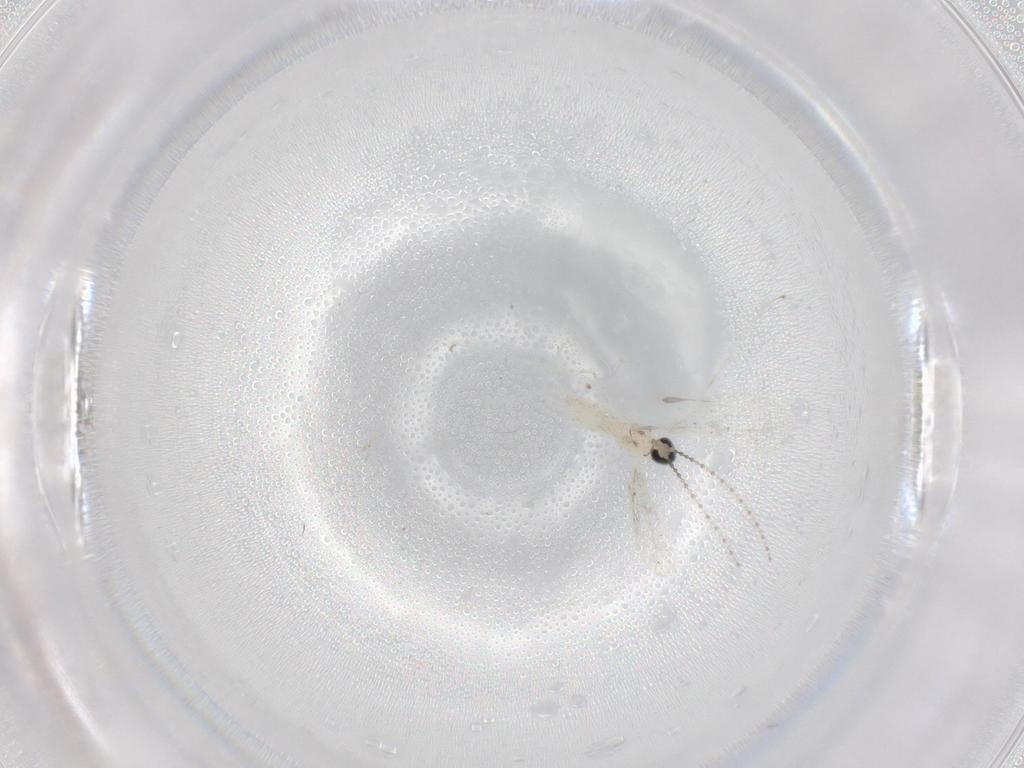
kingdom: Animalia
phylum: Arthropoda
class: Insecta
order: Diptera
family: Cecidomyiidae
